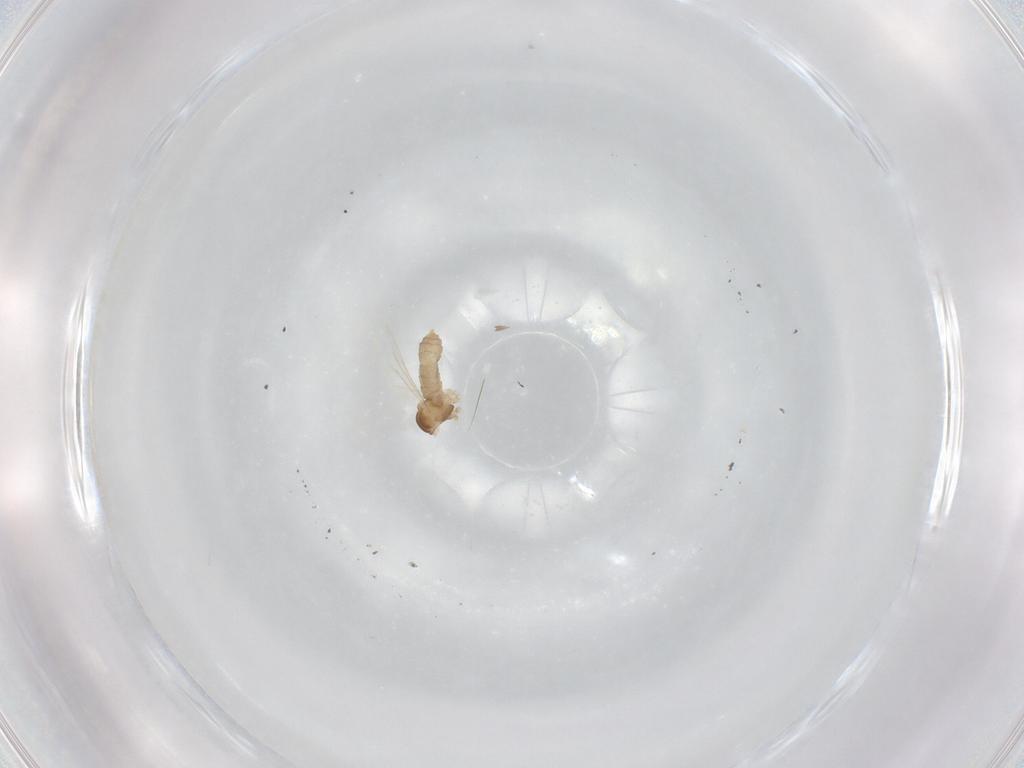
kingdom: Animalia
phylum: Arthropoda
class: Insecta
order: Diptera
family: Cecidomyiidae
